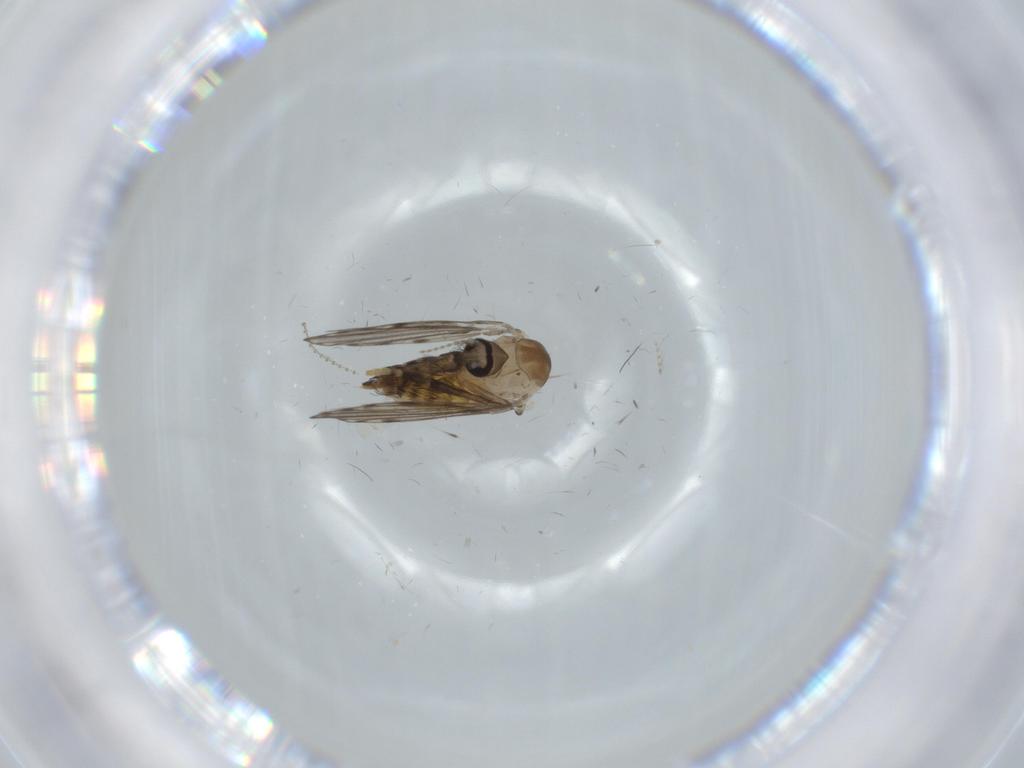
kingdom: Animalia
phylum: Arthropoda
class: Insecta
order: Diptera
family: Psychodidae
